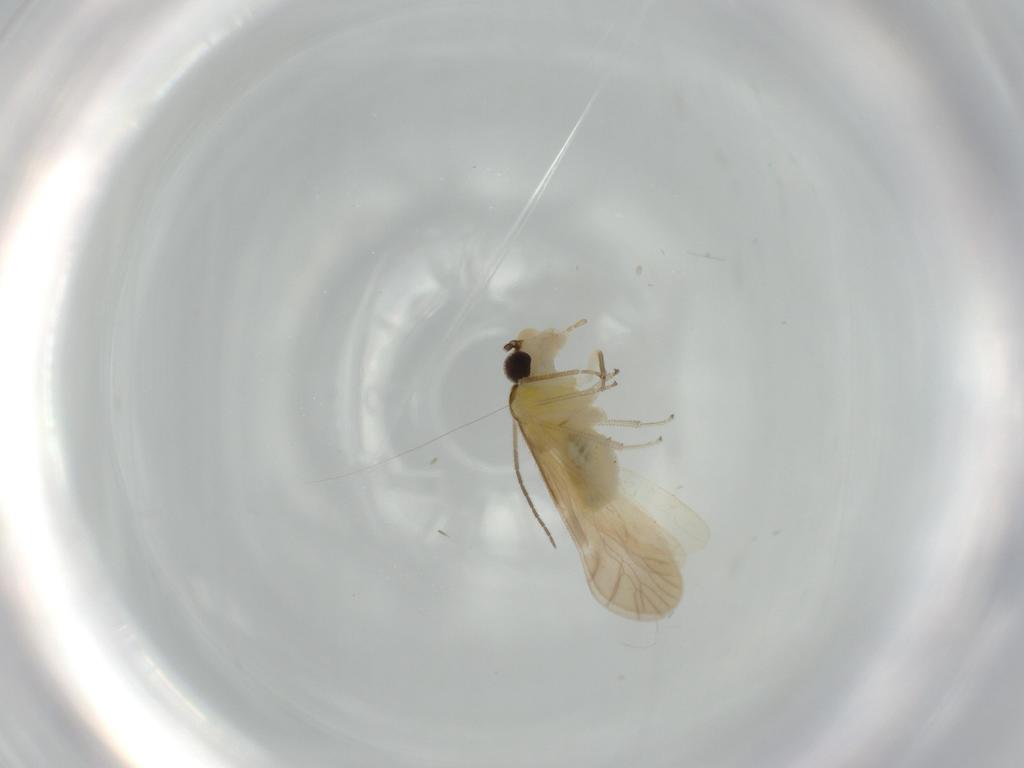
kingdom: Animalia
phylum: Arthropoda
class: Insecta
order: Psocodea
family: Caeciliusidae
